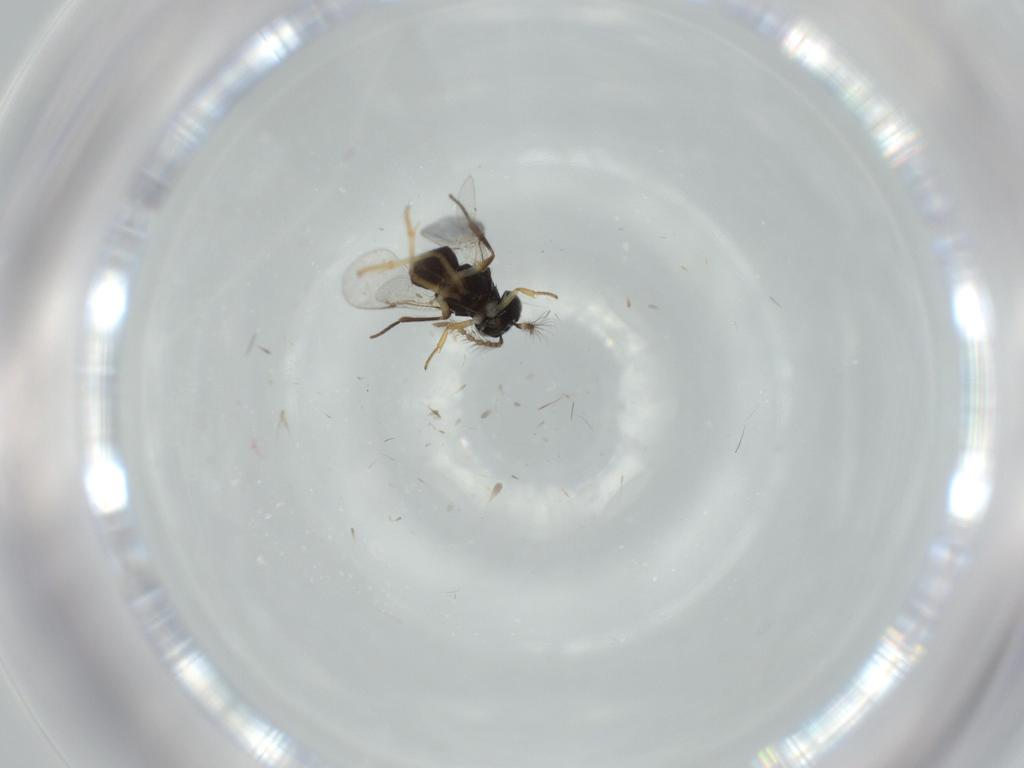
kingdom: Animalia
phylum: Arthropoda
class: Insecta
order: Hymenoptera
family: Encyrtidae
